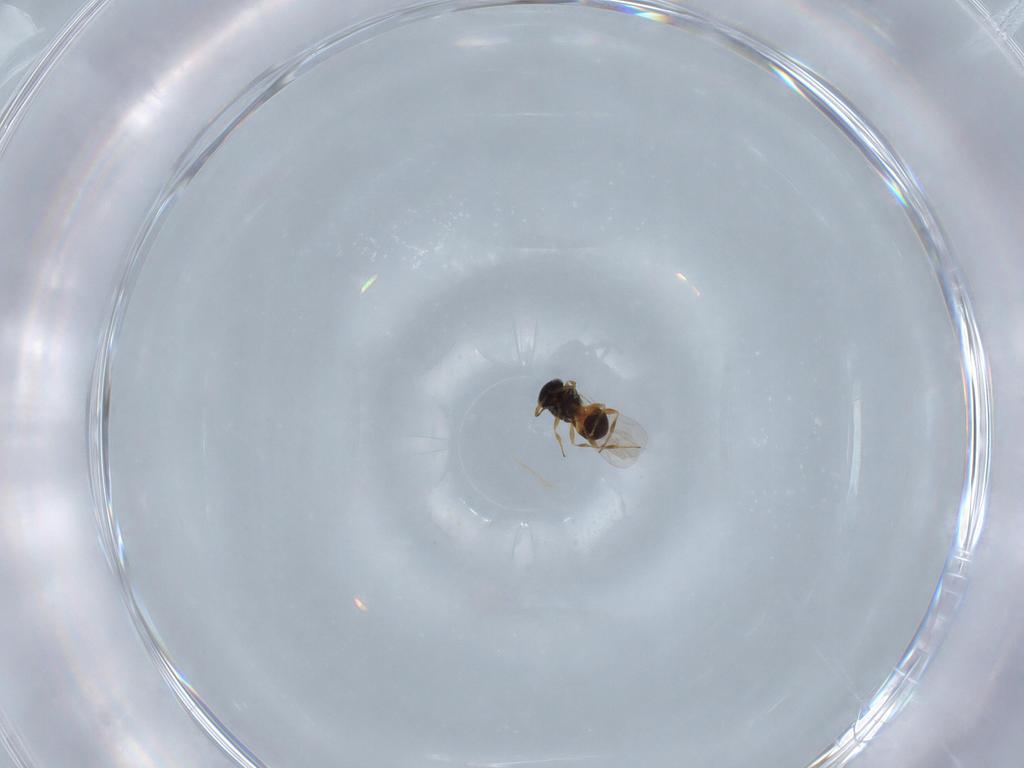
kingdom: Animalia
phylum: Arthropoda
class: Insecta
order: Hymenoptera
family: Platygastridae
